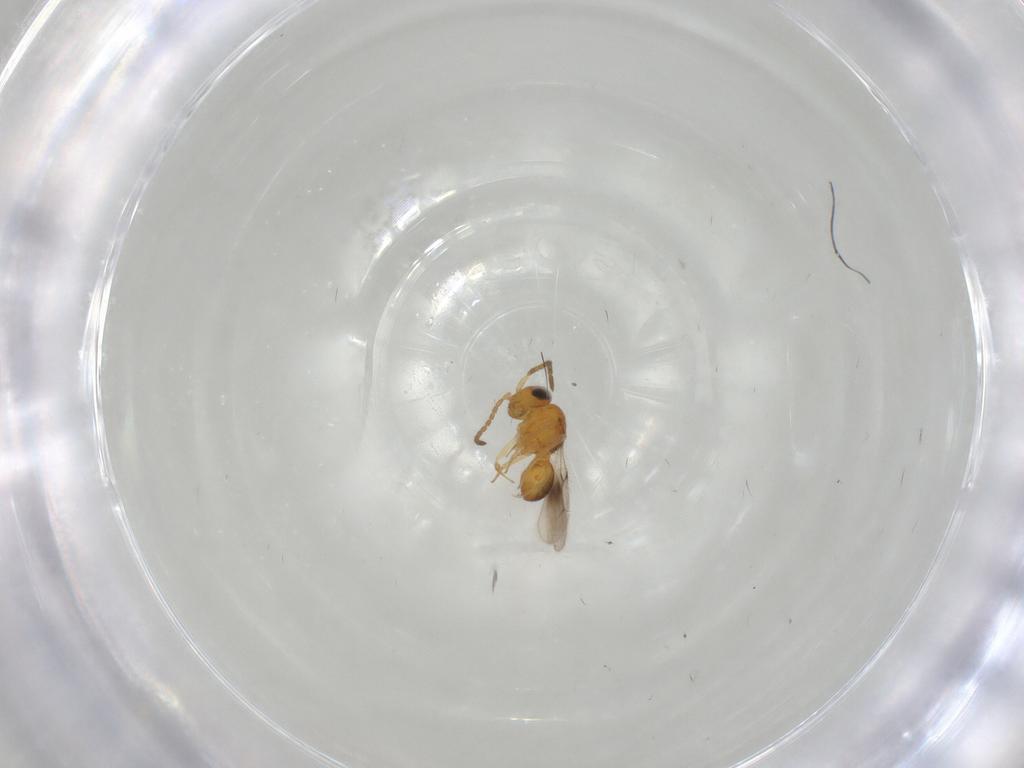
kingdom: Animalia
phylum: Arthropoda
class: Insecta
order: Hymenoptera
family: Scelionidae
